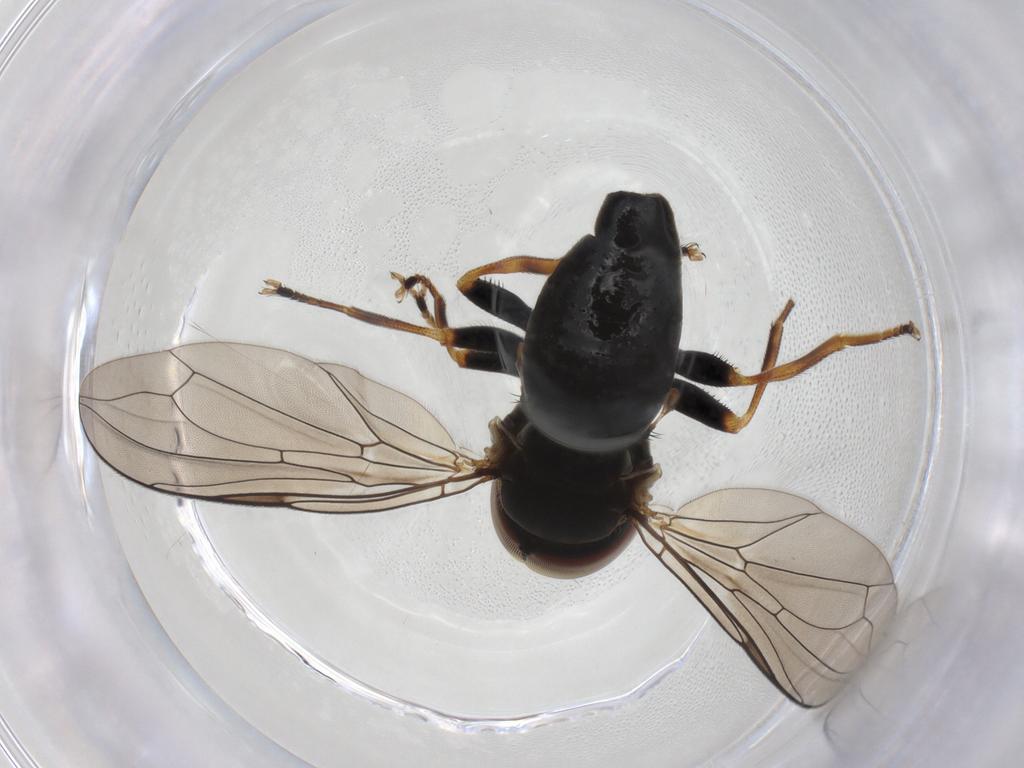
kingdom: Animalia
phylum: Arthropoda
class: Insecta
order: Diptera
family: Pipunculidae
